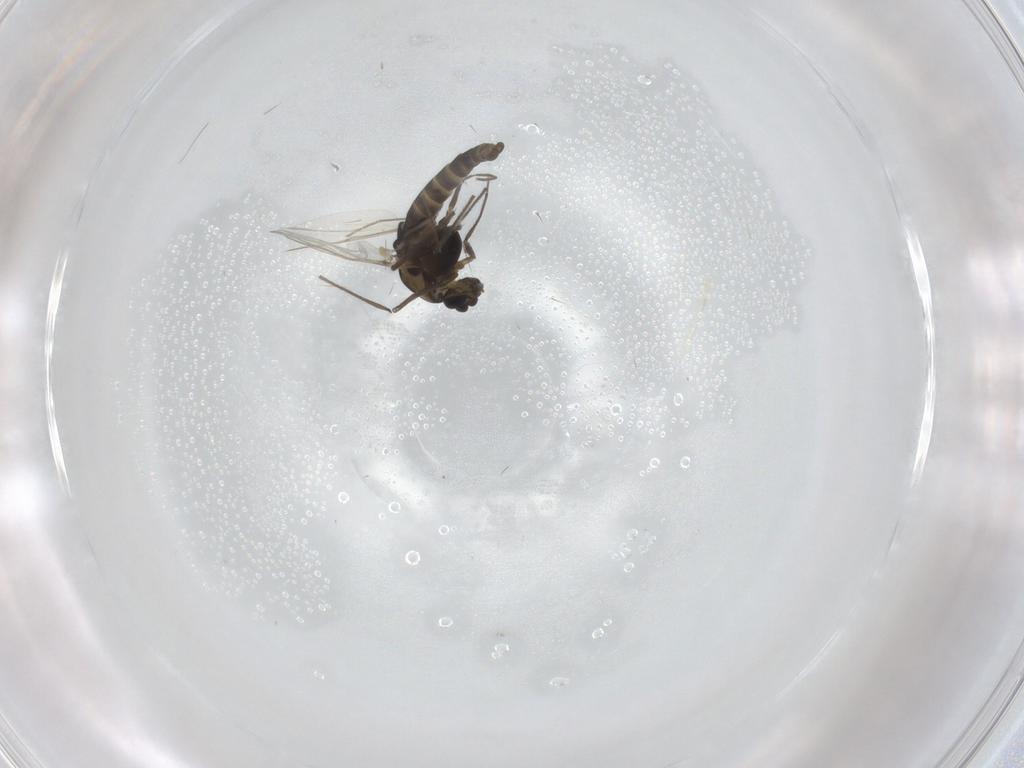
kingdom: Animalia
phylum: Arthropoda
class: Insecta
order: Diptera
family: Chironomidae
